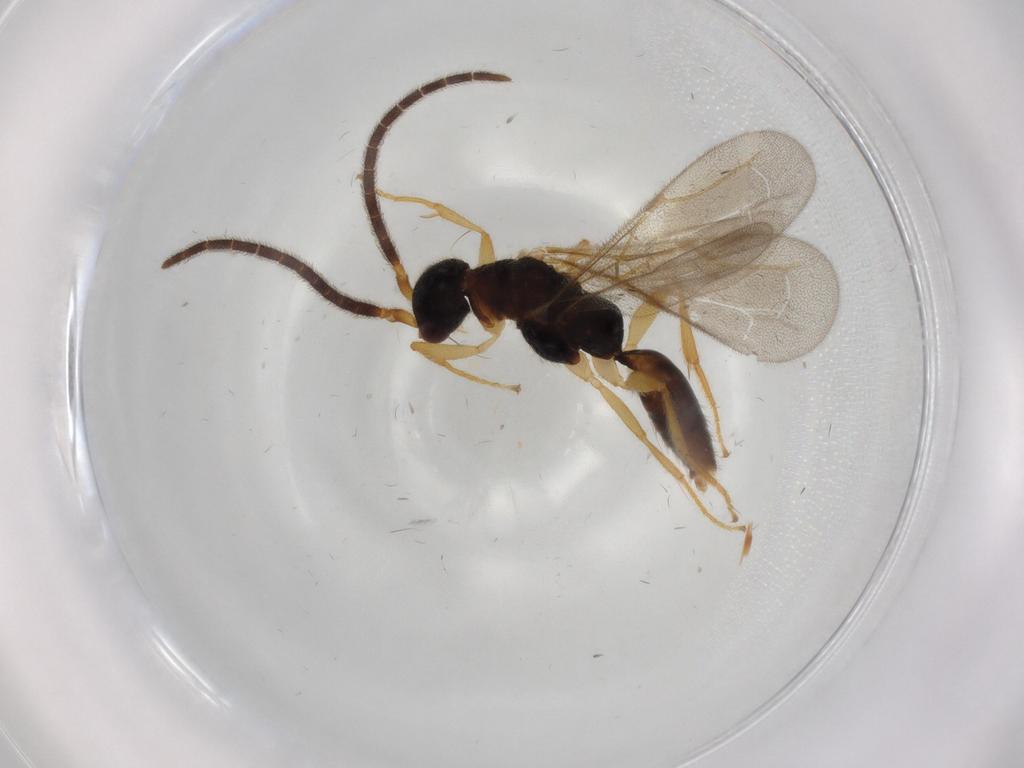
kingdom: Animalia
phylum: Arthropoda
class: Insecta
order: Hymenoptera
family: Bethylidae
